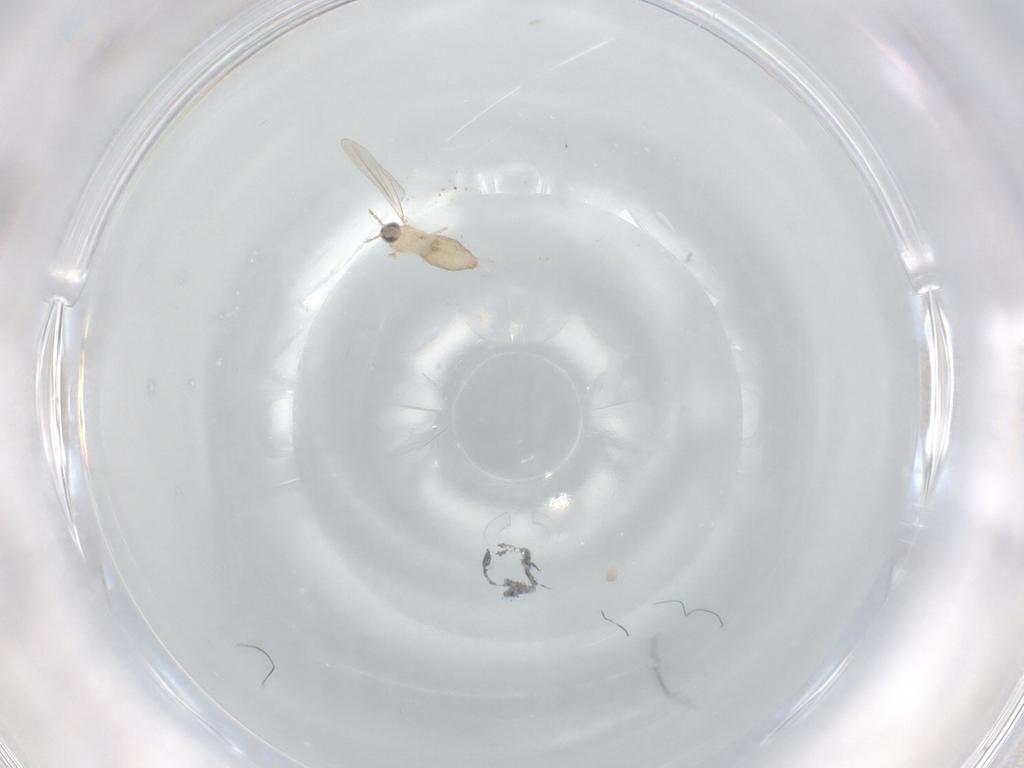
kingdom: Animalia
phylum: Arthropoda
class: Insecta
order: Diptera
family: Cecidomyiidae
